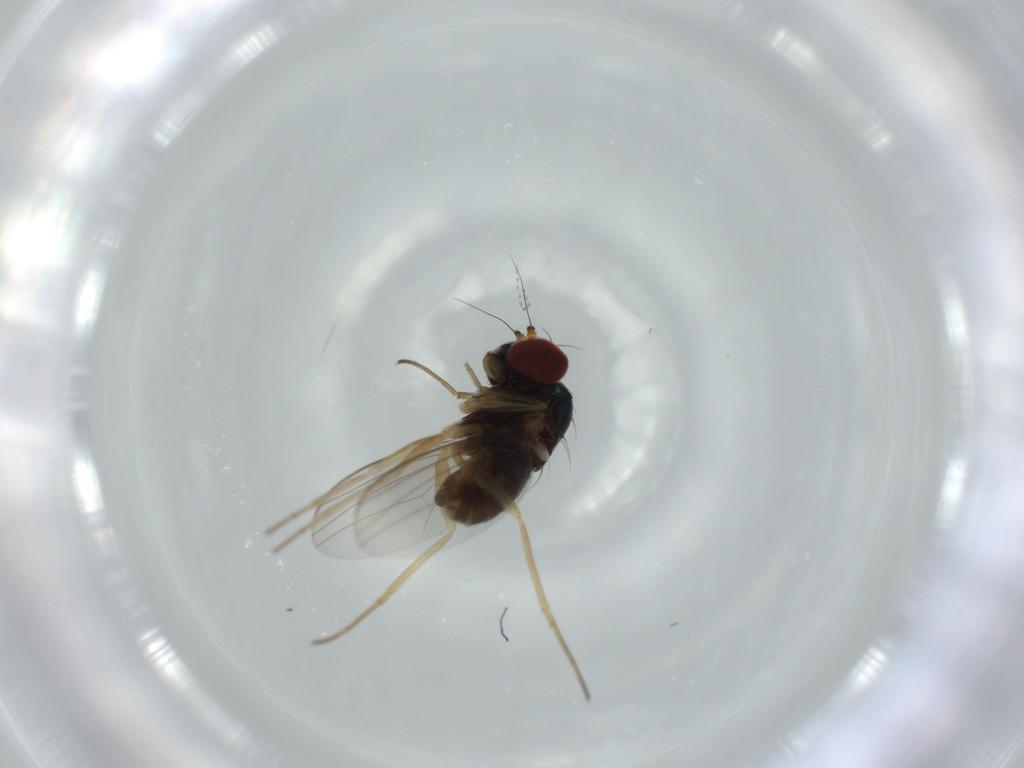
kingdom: Animalia
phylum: Arthropoda
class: Insecta
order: Diptera
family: Dolichopodidae
